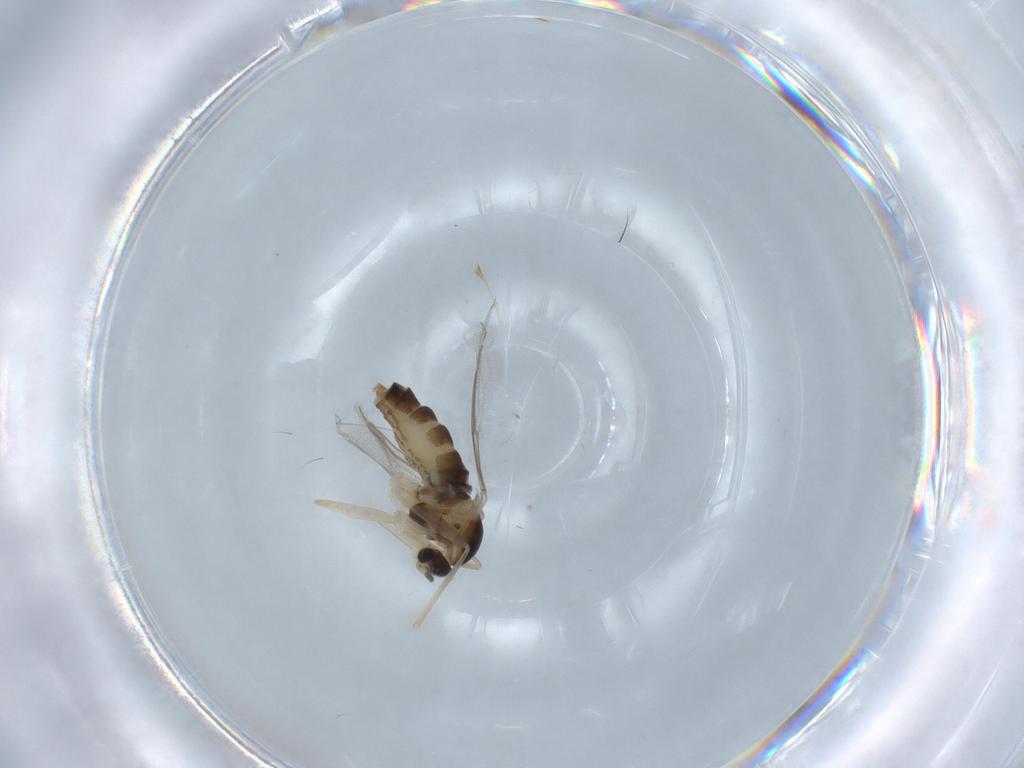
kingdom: Animalia
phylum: Arthropoda
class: Insecta
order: Diptera
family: Cecidomyiidae
